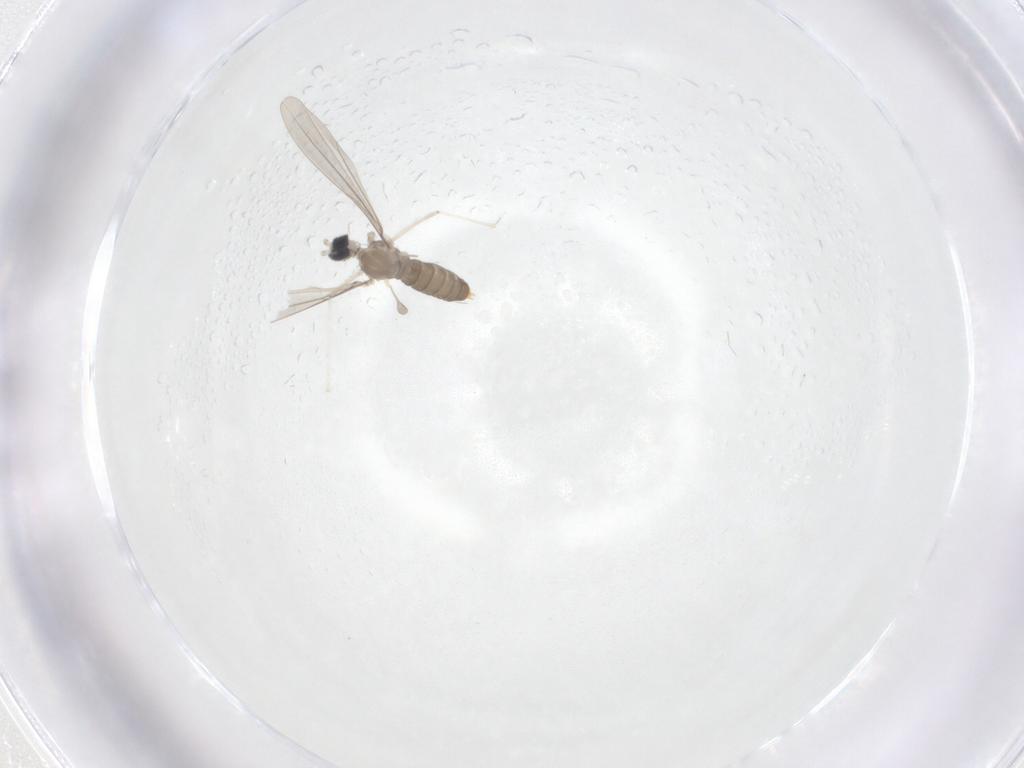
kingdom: Animalia
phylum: Arthropoda
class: Insecta
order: Diptera
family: Cecidomyiidae
